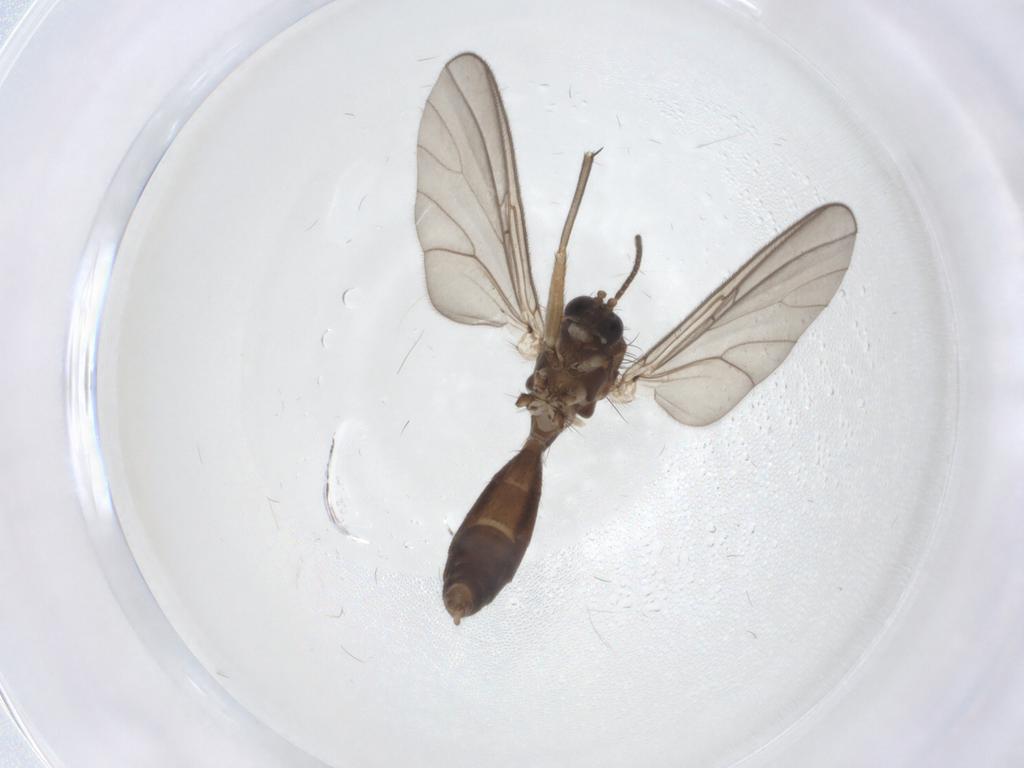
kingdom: Animalia
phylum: Arthropoda
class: Insecta
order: Diptera
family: Mycetophilidae
